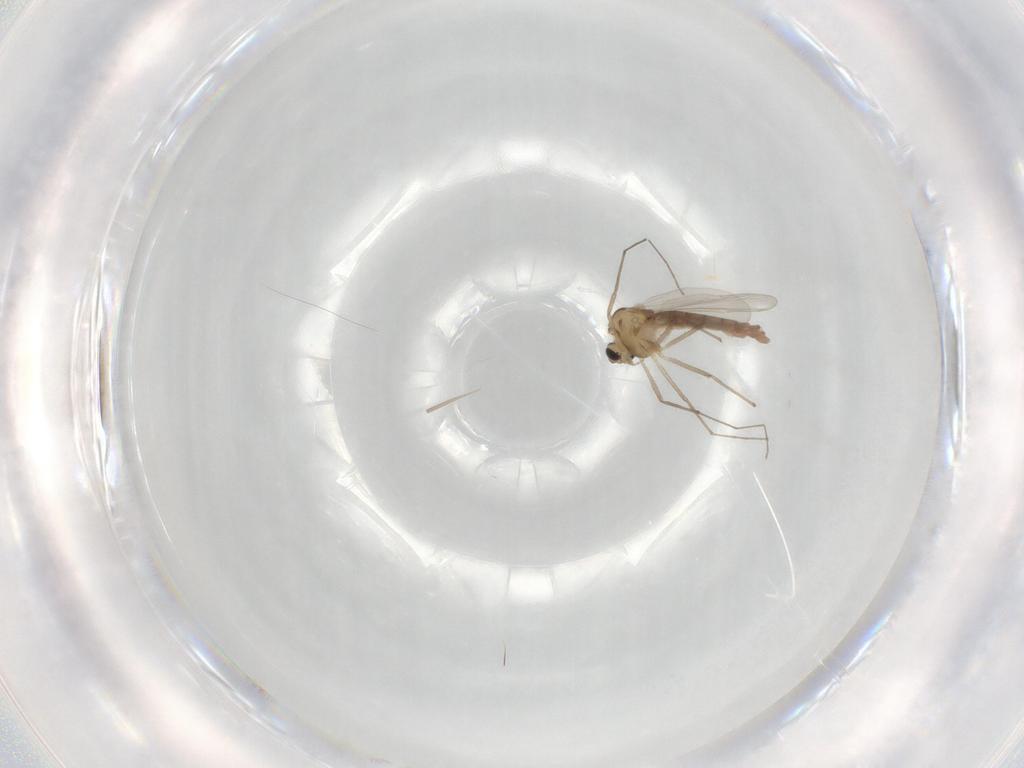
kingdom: Animalia
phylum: Arthropoda
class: Insecta
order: Diptera
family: Chironomidae
